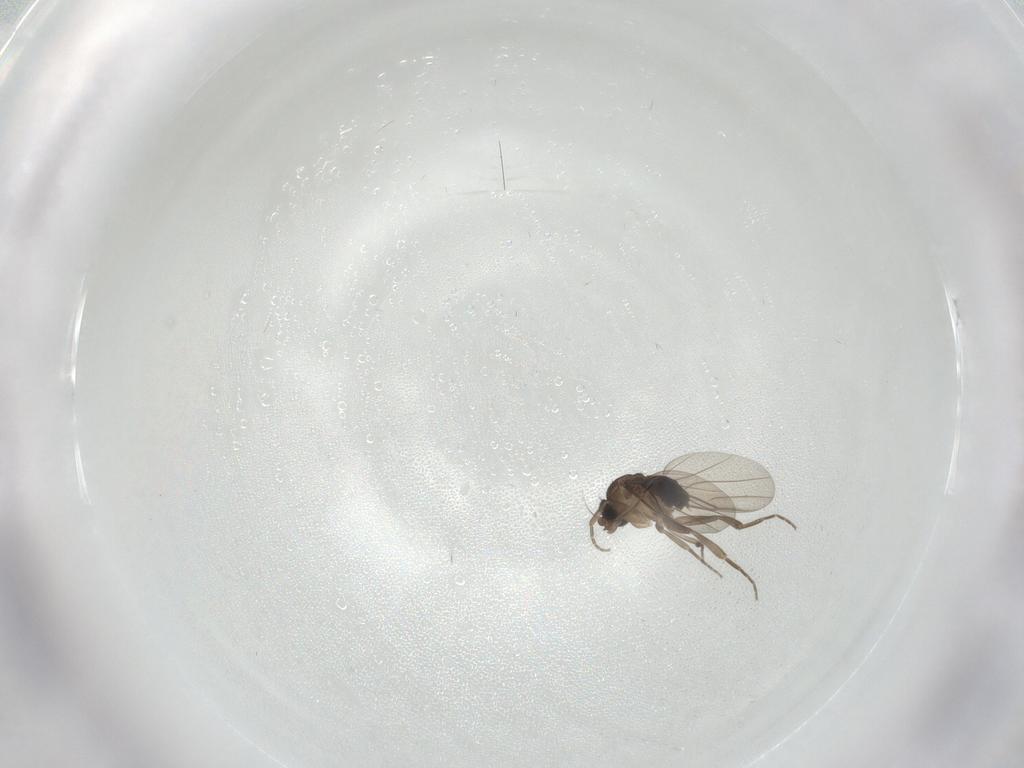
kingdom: Animalia
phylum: Arthropoda
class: Insecta
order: Diptera
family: Phoridae
